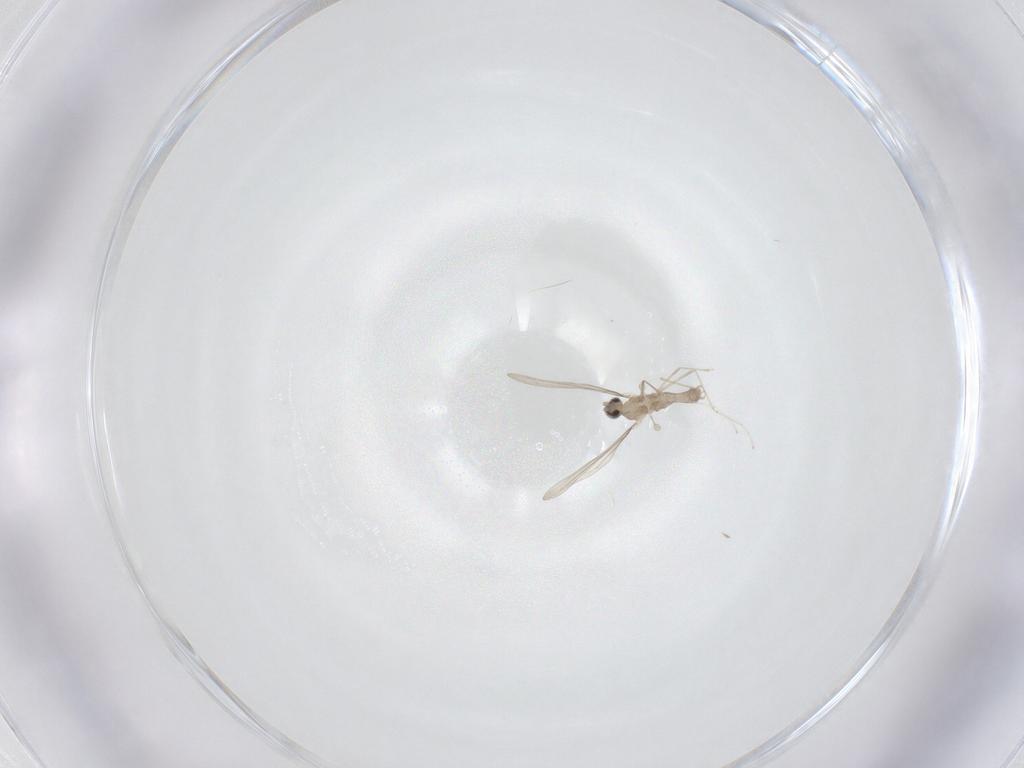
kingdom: Animalia
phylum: Arthropoda
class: Insecta
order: Diptera
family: Cecidomyiidae
